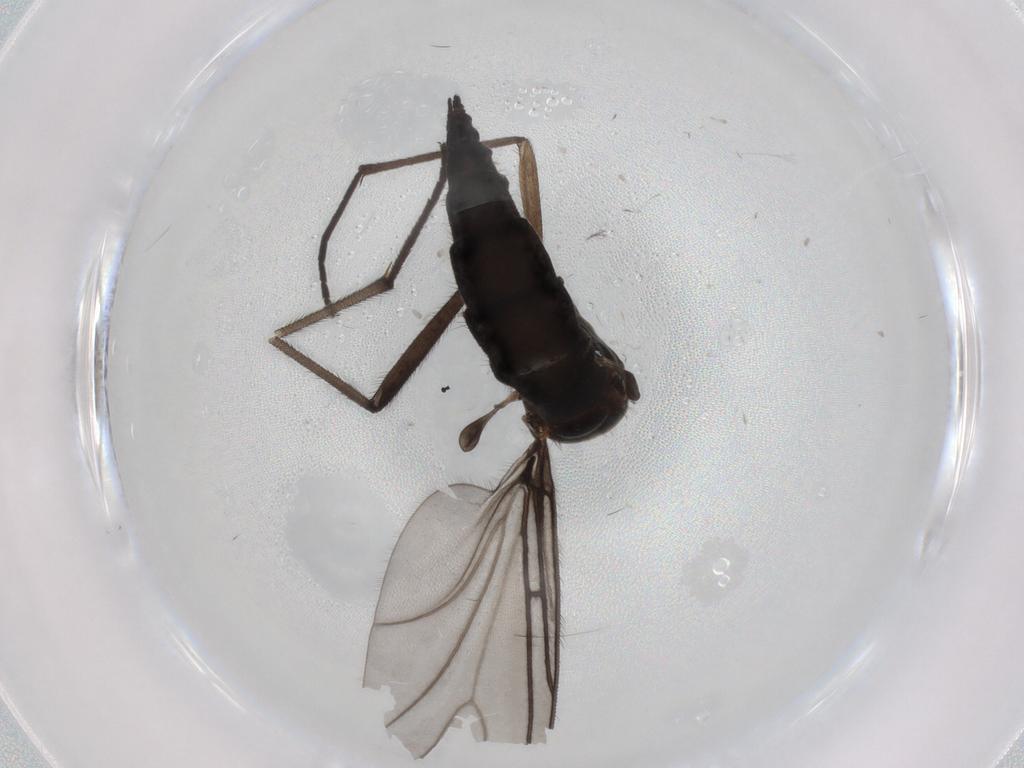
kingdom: Animalia
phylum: Arthropoda
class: Insecta
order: Diptera
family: Sciaridae
